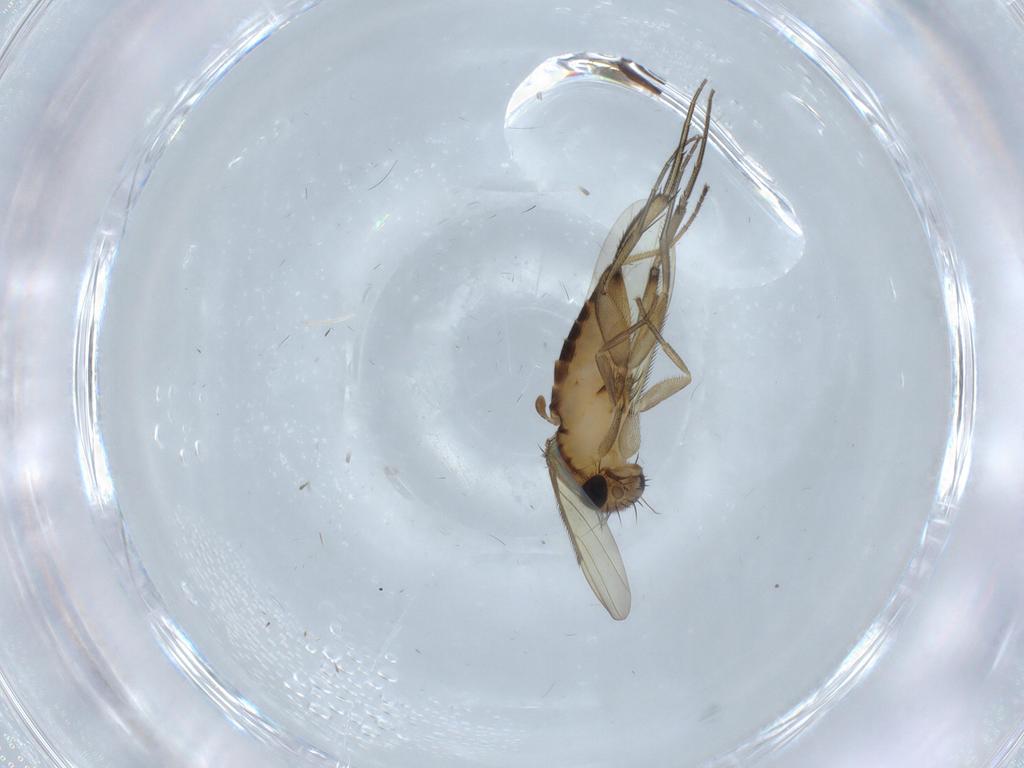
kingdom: Animalia
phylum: Arthropoda
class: Insecta
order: Diptera
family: Phoridae
